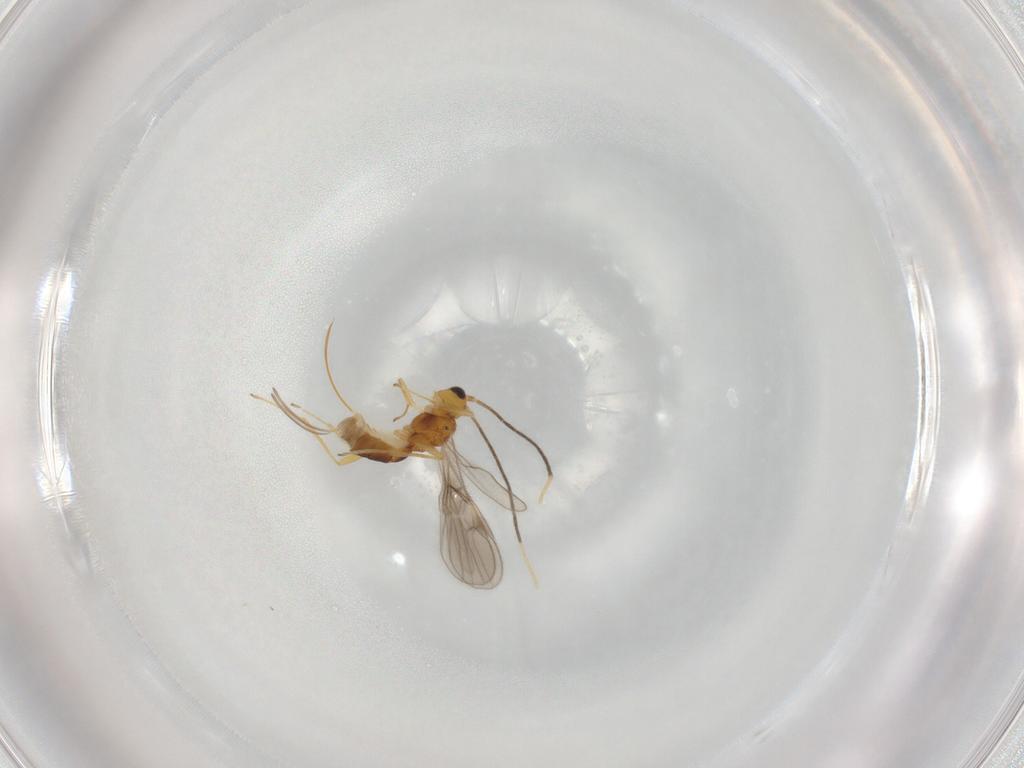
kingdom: Animalia
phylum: Arthropoda
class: Insecta
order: Hymenoptera
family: Braconidae
